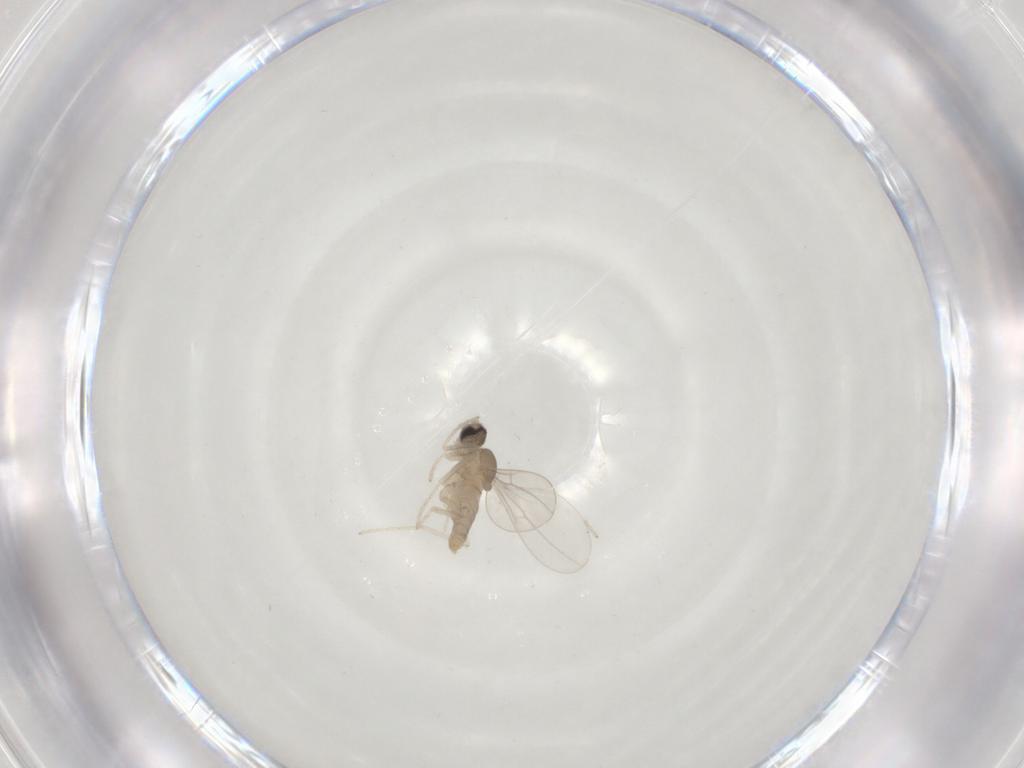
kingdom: Animalia
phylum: Arthropoda
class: Insecta
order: Diptera
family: Cecidomyiidae
